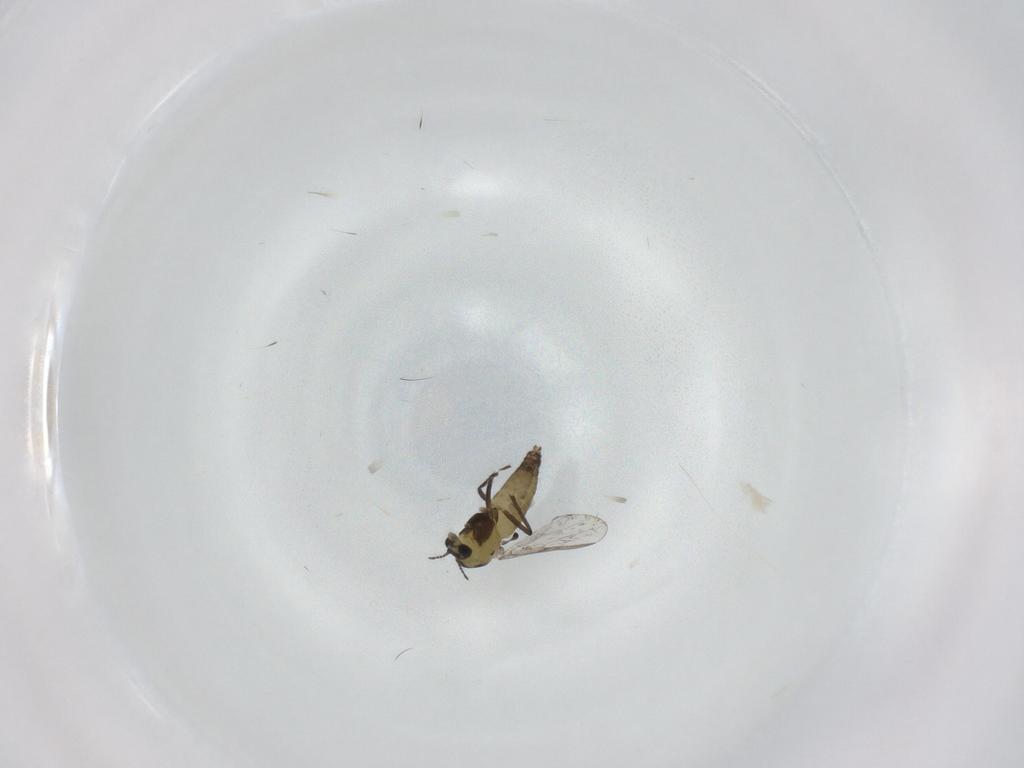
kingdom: Animalia
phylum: Arthropoda
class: Insecta
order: Diptera
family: Chironomidae
